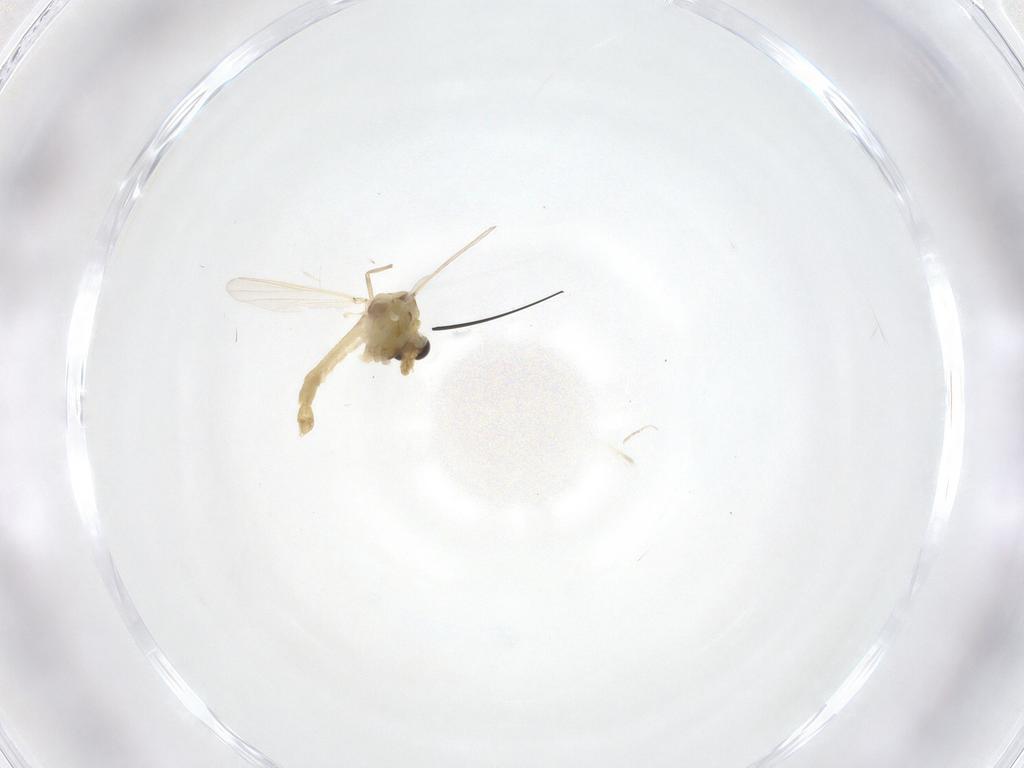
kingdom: Animalia
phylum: Arthropoda
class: Insecta
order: Diptera
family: Chironomidae
